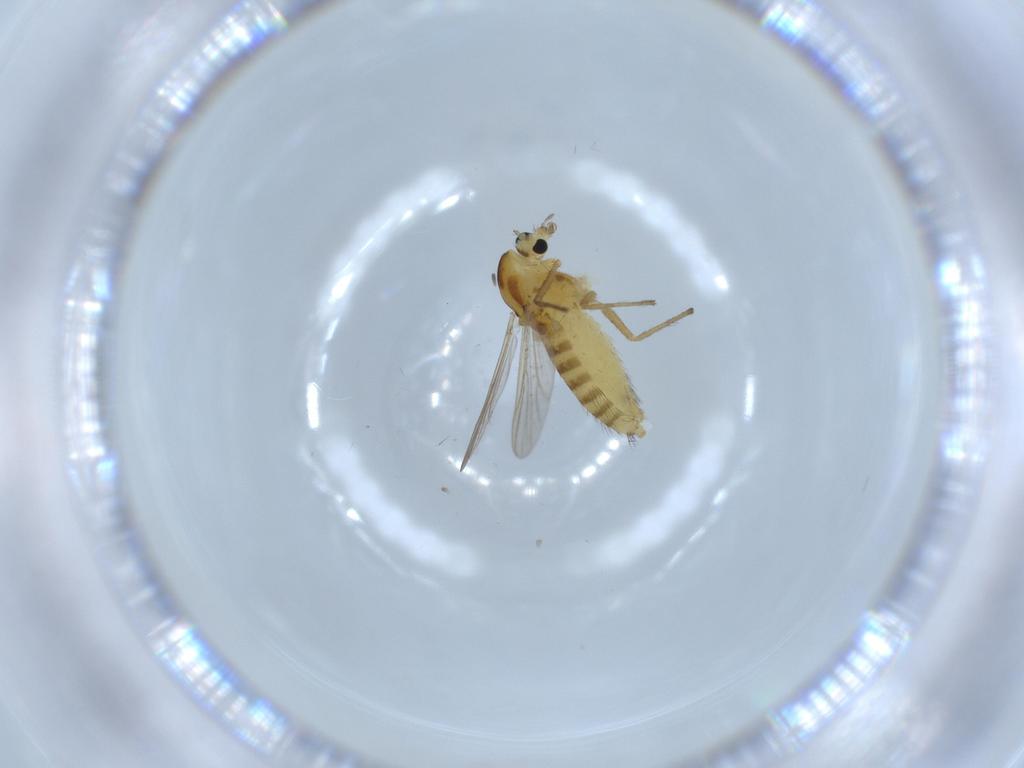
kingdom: Animalia
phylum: Arthropoda
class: Insecta
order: Diptera
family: Chironomidae
